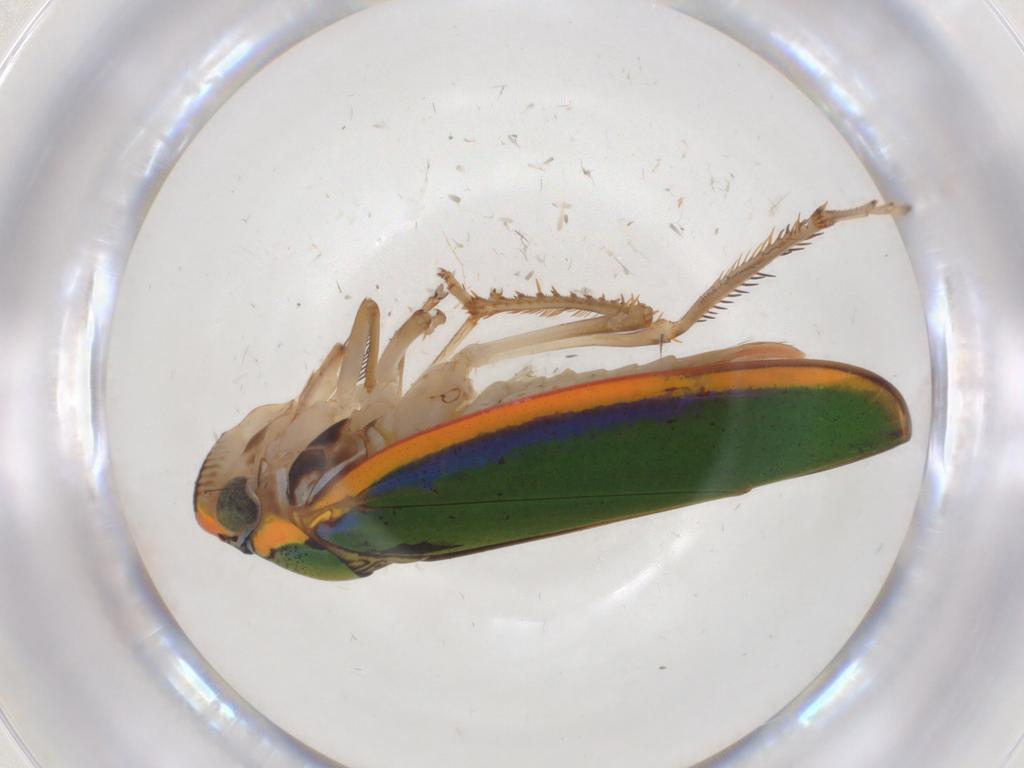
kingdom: Animalia
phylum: Arthropoda
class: Insecta
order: Hemiptera
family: Cicadellidae
